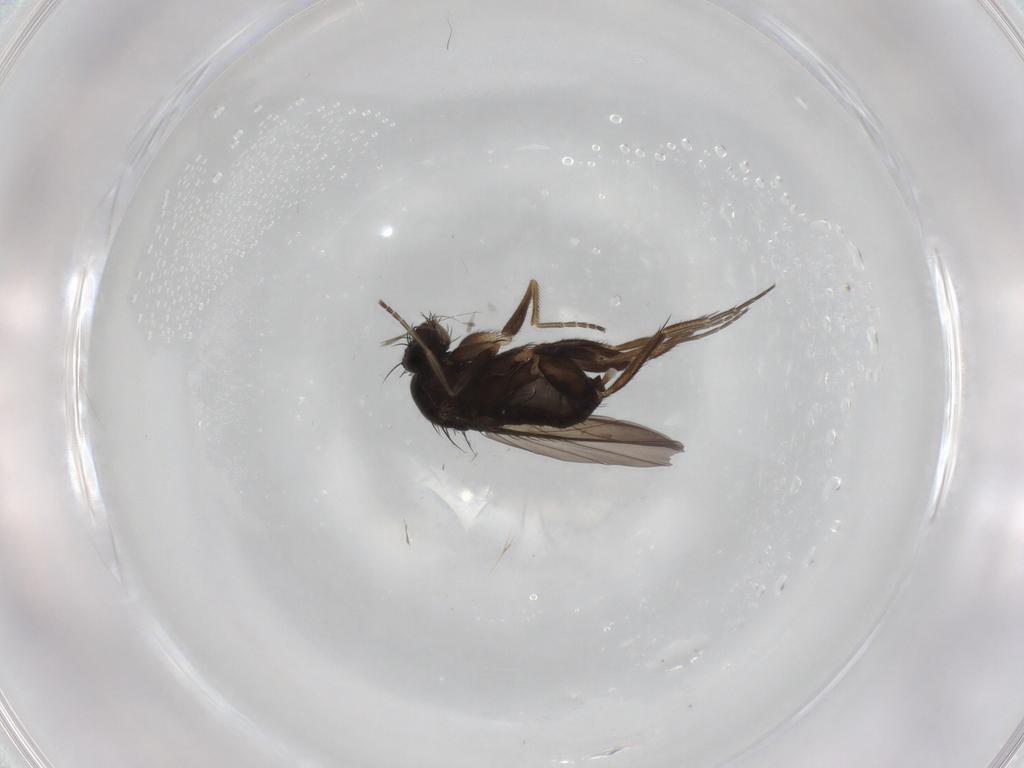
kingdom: Animalia
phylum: Arthropoda
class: Insecta
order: Diptera
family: Phoridae
